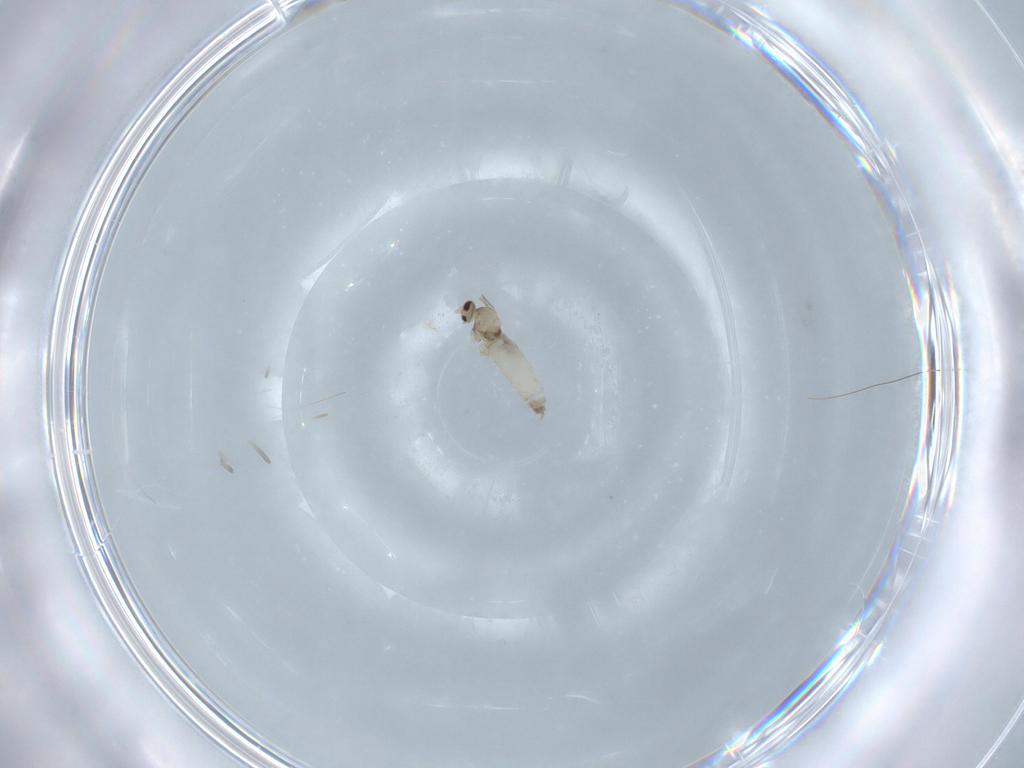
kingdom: Animalia
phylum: Arthropoda
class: Insecta
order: Diptera
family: Cecidomyiidae
